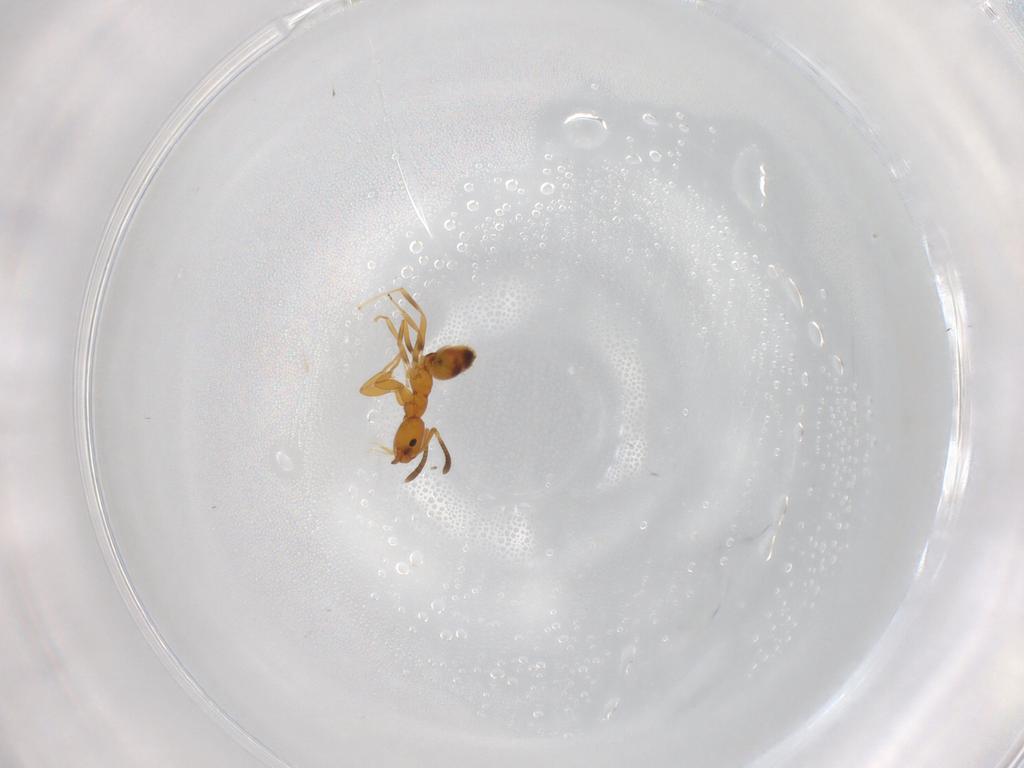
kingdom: Animalia
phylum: Arthropoda
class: Insecta
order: Hymenoptera
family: Formicidae
